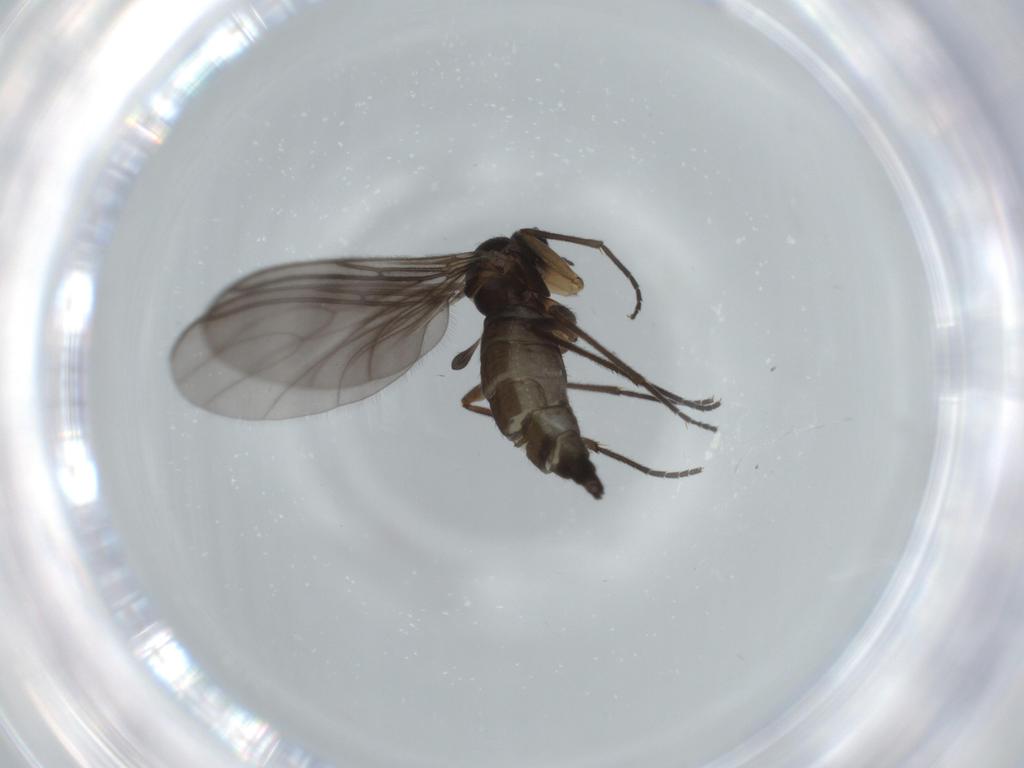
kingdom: Animalia
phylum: Arthropoda
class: Insecta
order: Diptera
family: Sciaridae
